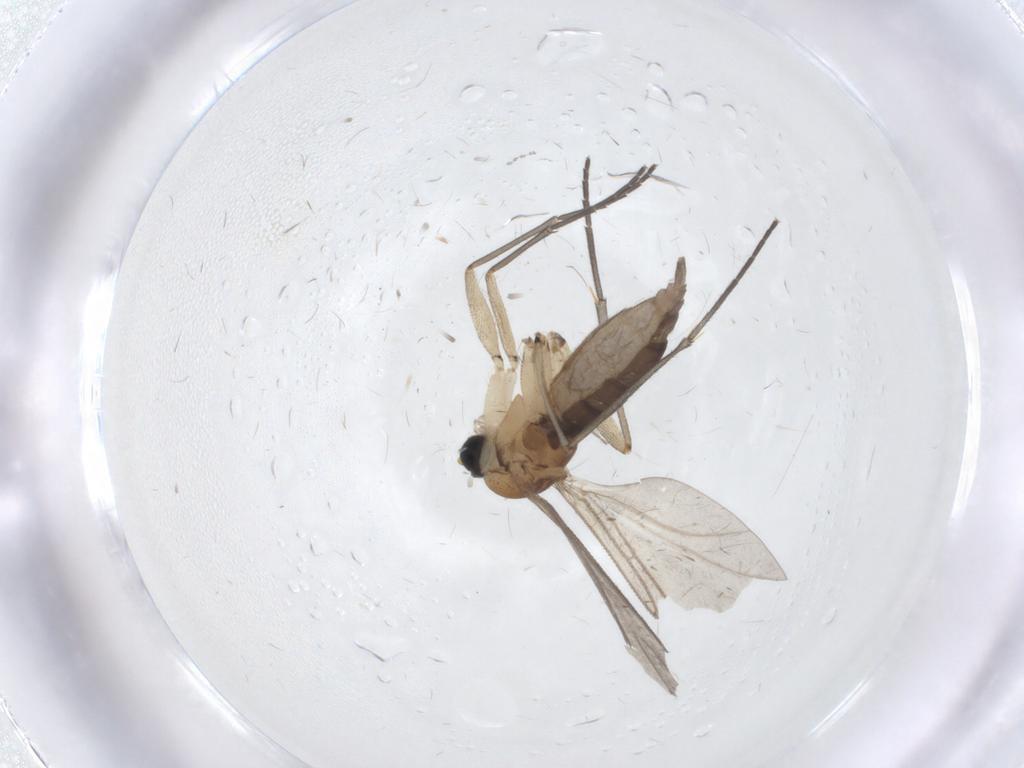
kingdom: Animalia
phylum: Arthropoda
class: Insecta
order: Diptera
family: Sciaridae
